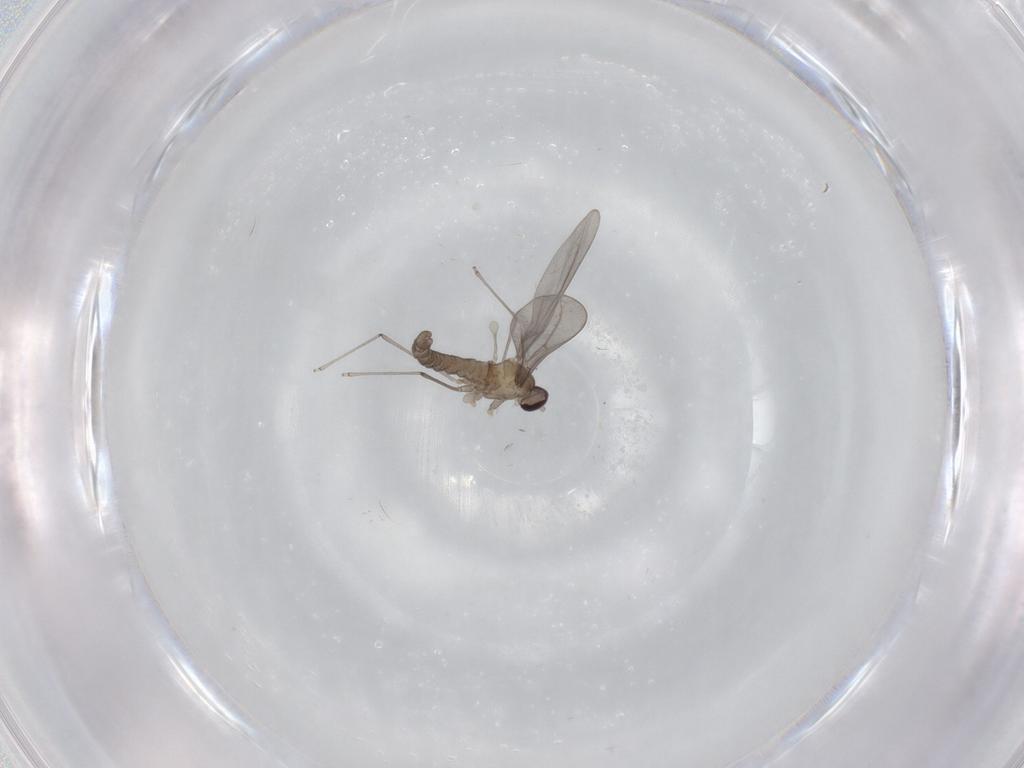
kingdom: Animalia
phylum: Arthropoda
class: Insecta
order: Diptera
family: Cecidomyiidae
